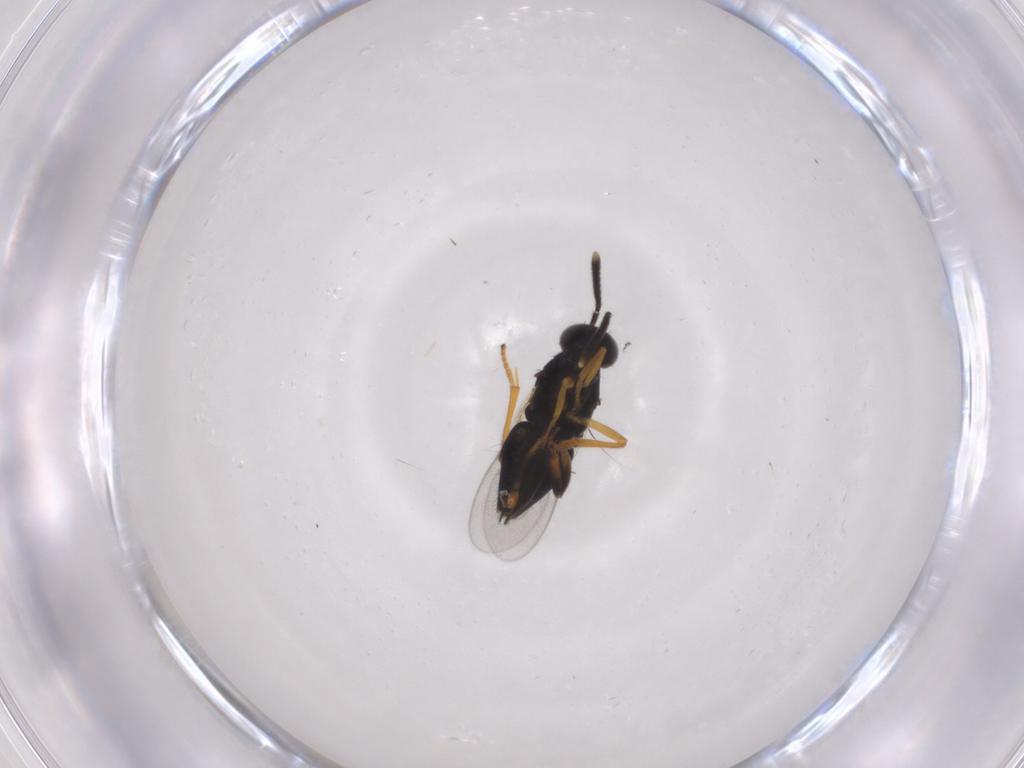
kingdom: Animalia
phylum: Arthropoda
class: Insecta
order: Hymenoptera
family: Encyrtidae
